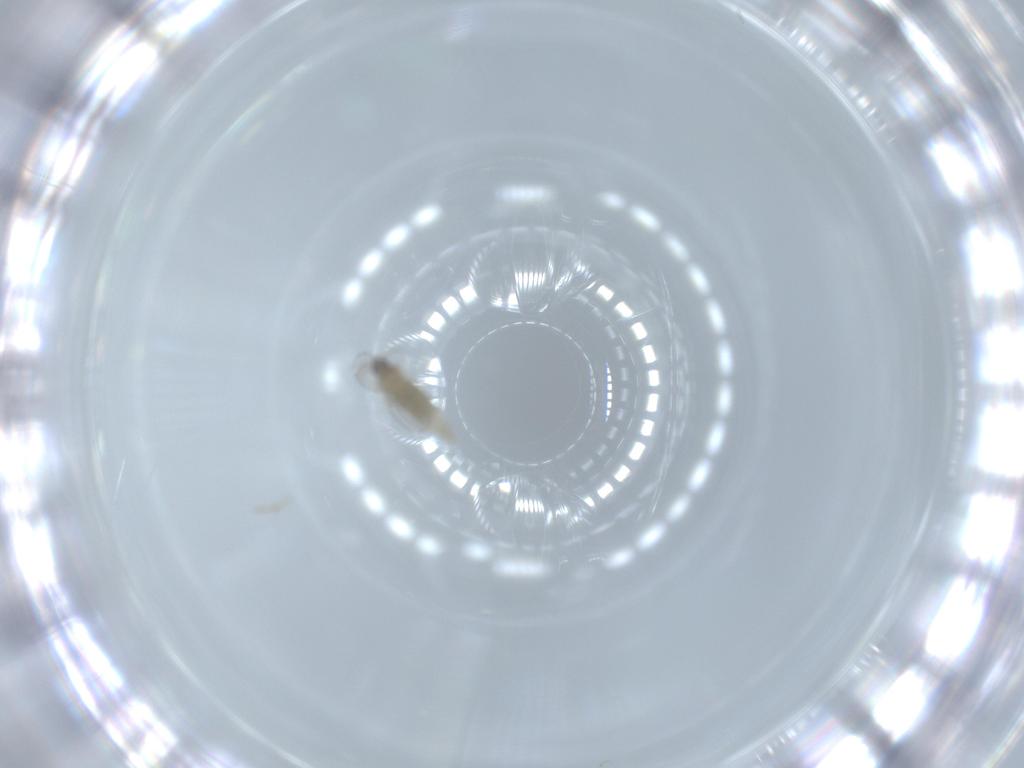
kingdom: Animalia
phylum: Arthropoda
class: Insecta
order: Diptera
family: Cecidomyiidae
